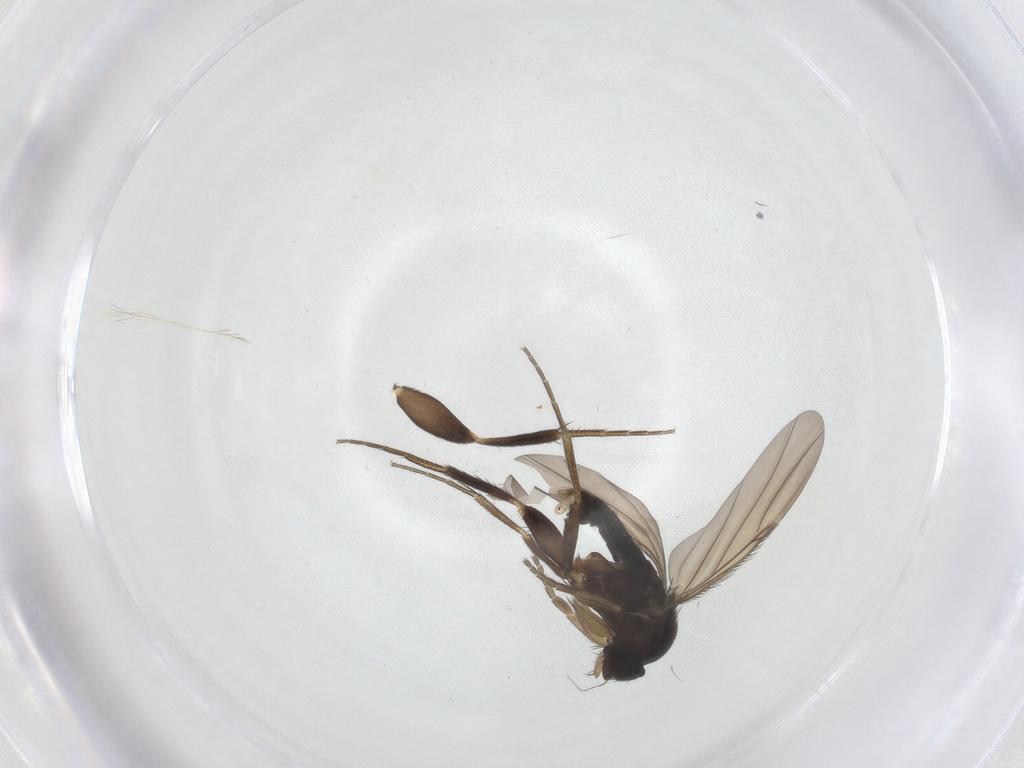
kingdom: Animalia
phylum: Arthropoda
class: Insecta
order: Diptera
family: Phoridae
